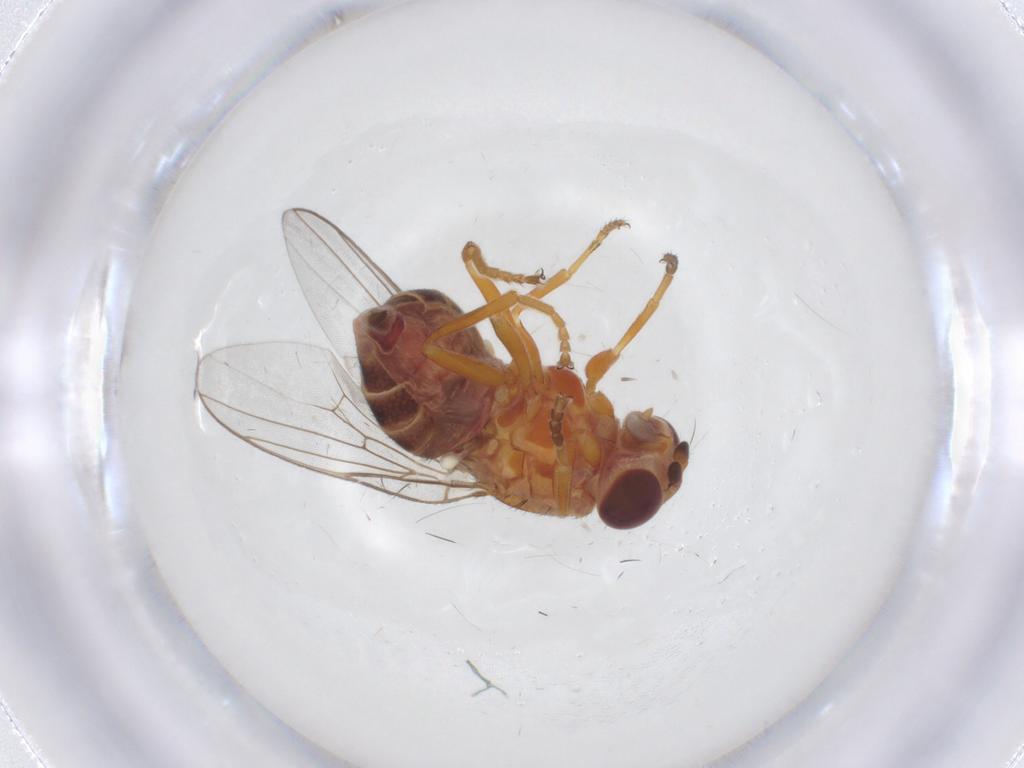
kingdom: Animalia
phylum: Arthropoda
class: Insecta
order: Diptera
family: Chloropidae
